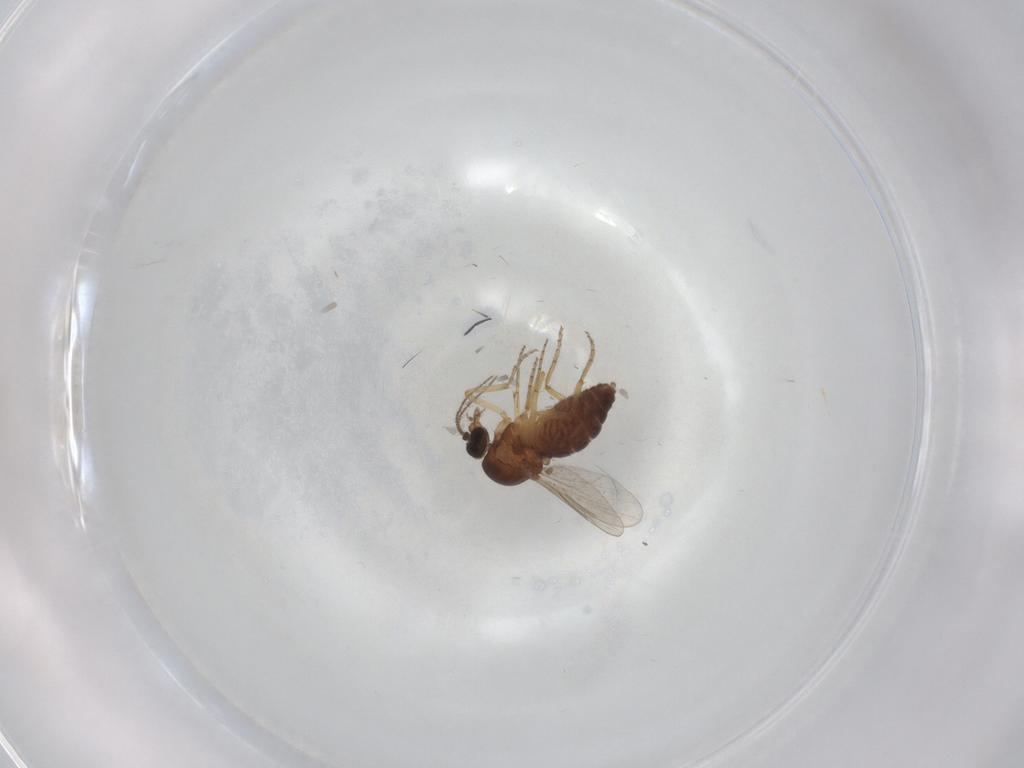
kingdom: Animalia
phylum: Arthropoda
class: Insecta
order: Diptera
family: Ceratopogonidae
